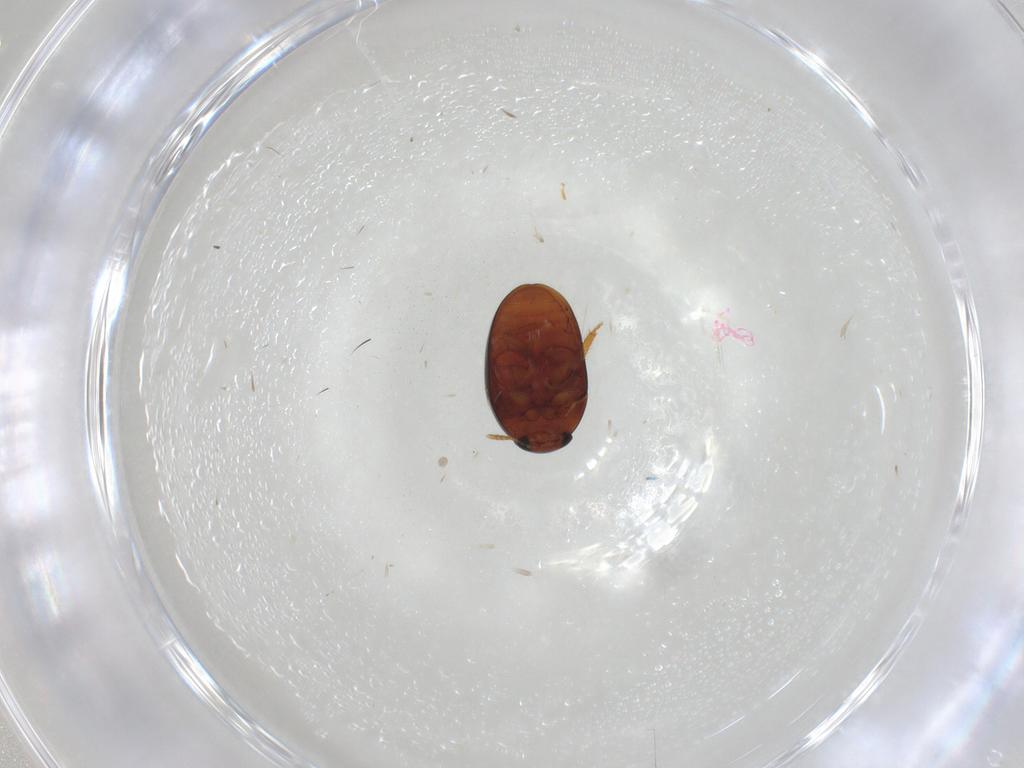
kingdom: Animalia
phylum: Arthropoda
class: Insecta
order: Coleoptera
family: Phalacridae
